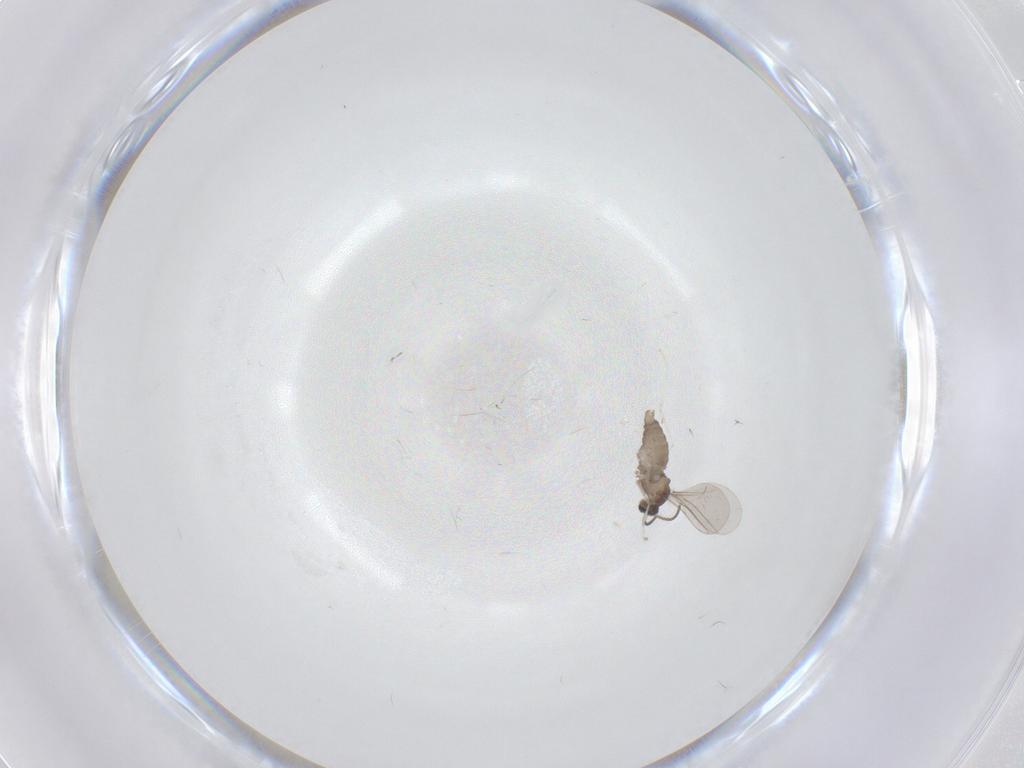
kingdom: Animalia
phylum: Arthropoda
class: Insecta
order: Diptera
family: Cecidomyiidae
